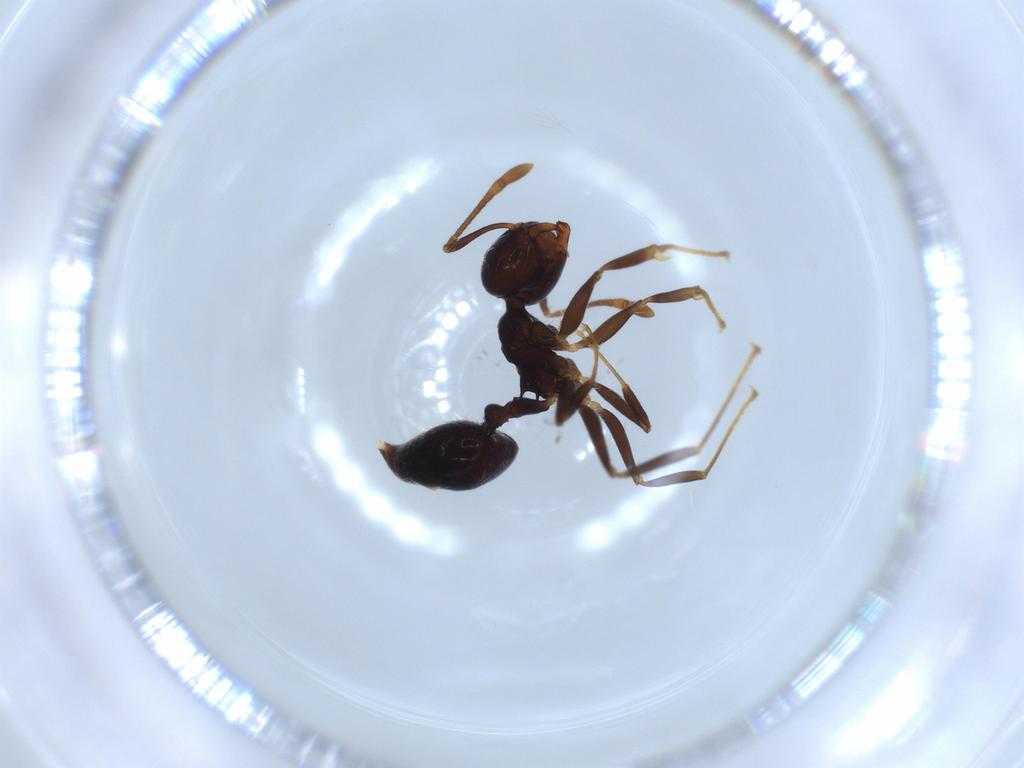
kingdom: Animalia
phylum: Arthropoda
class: Insecta
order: Hymenoptera
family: Formicidae
